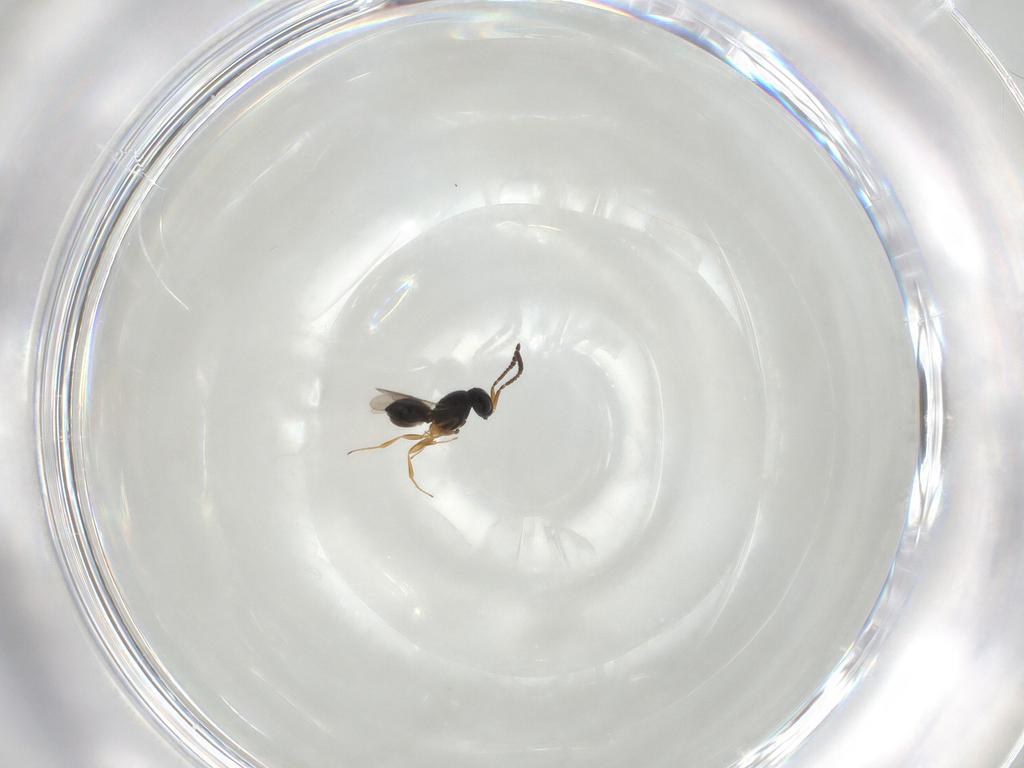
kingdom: Animalia
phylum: Arthropoda
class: Insecta
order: Hymenoptera
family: Scelionidae
